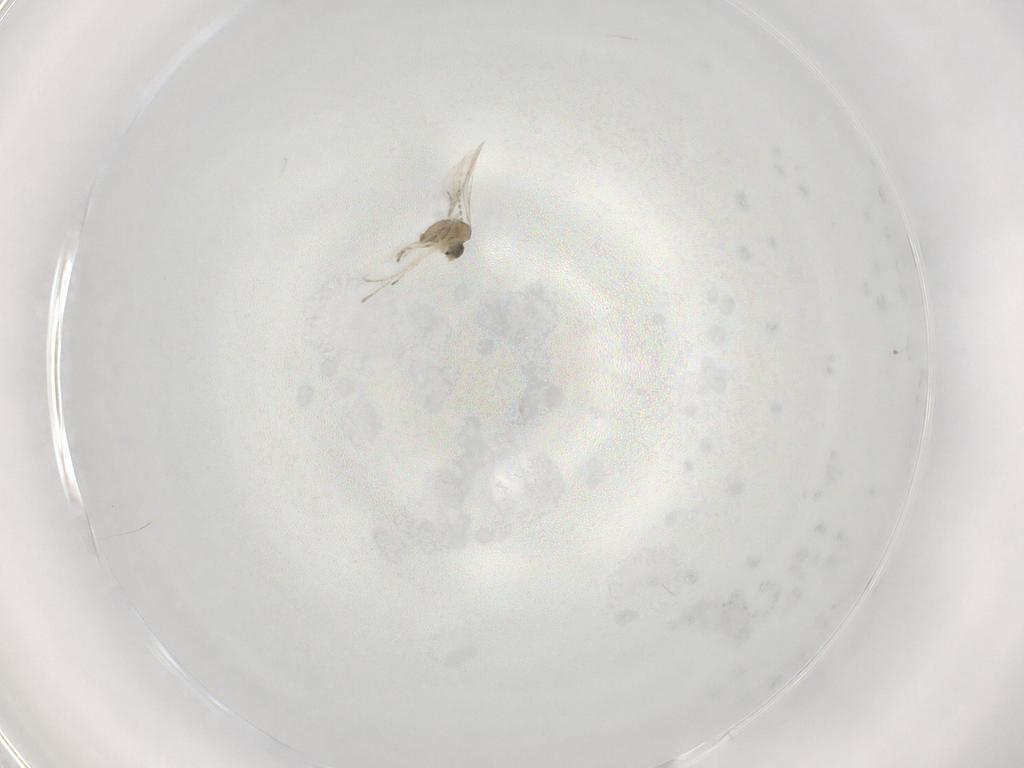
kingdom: Animalia
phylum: Arthropoda
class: Insecta
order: Diptera
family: Cecidomyiidae
